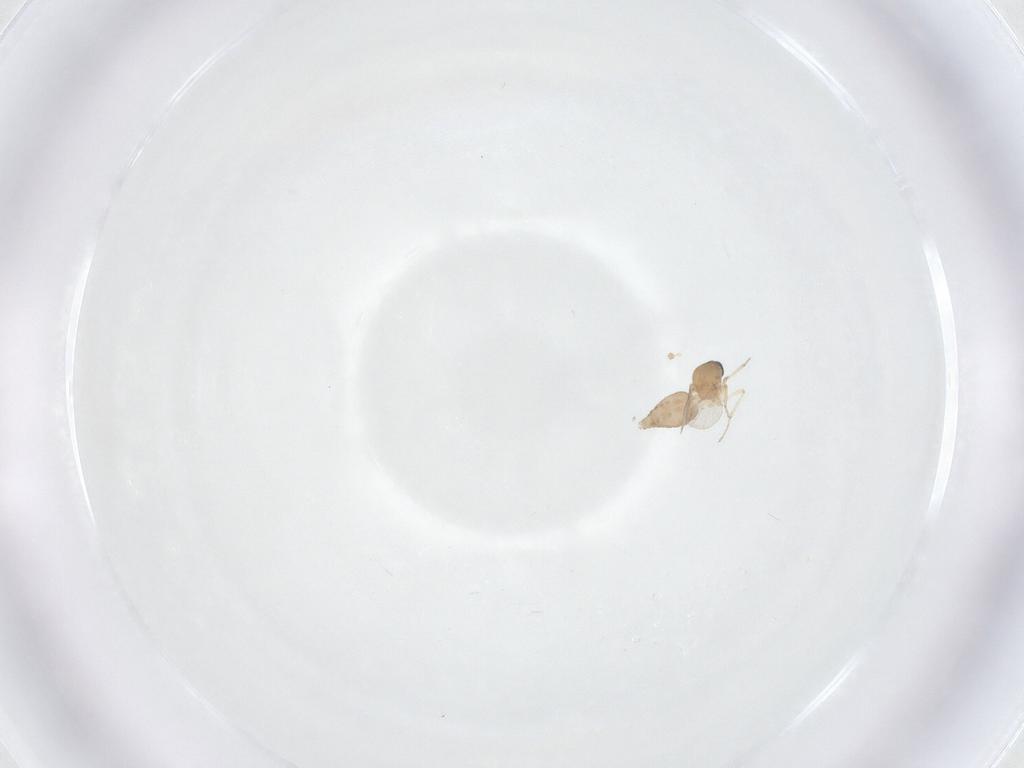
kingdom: Animalia
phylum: Arthropoda
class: Insecta
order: Diptera
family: Ceratopogonidae
